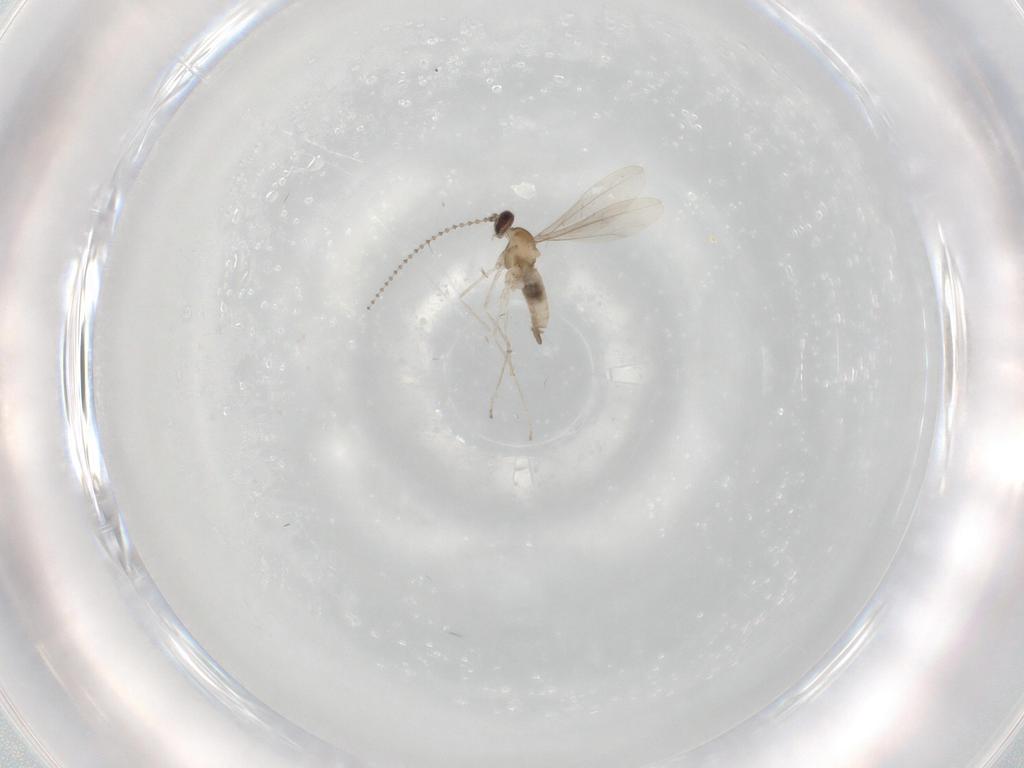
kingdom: Animalia
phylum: Arthropoda
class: Insecta
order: Diptera
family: Cecidomyiidae
